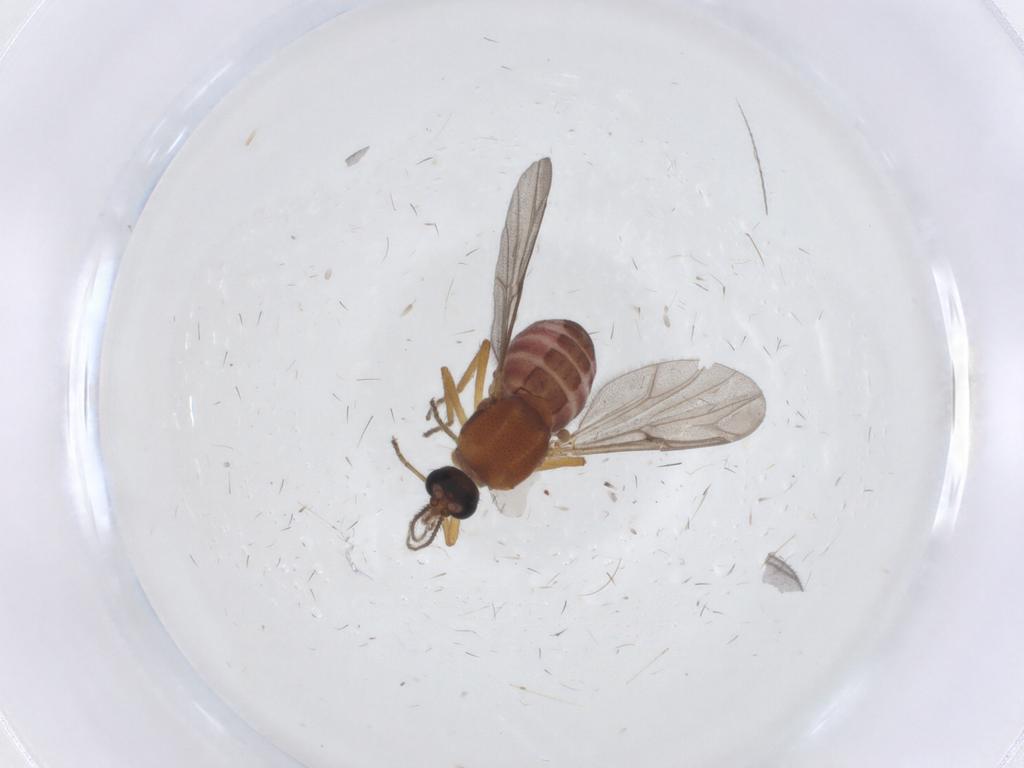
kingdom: Animalia
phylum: Arthropoda
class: Insecta
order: Diptera
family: Ceratopogonidae
